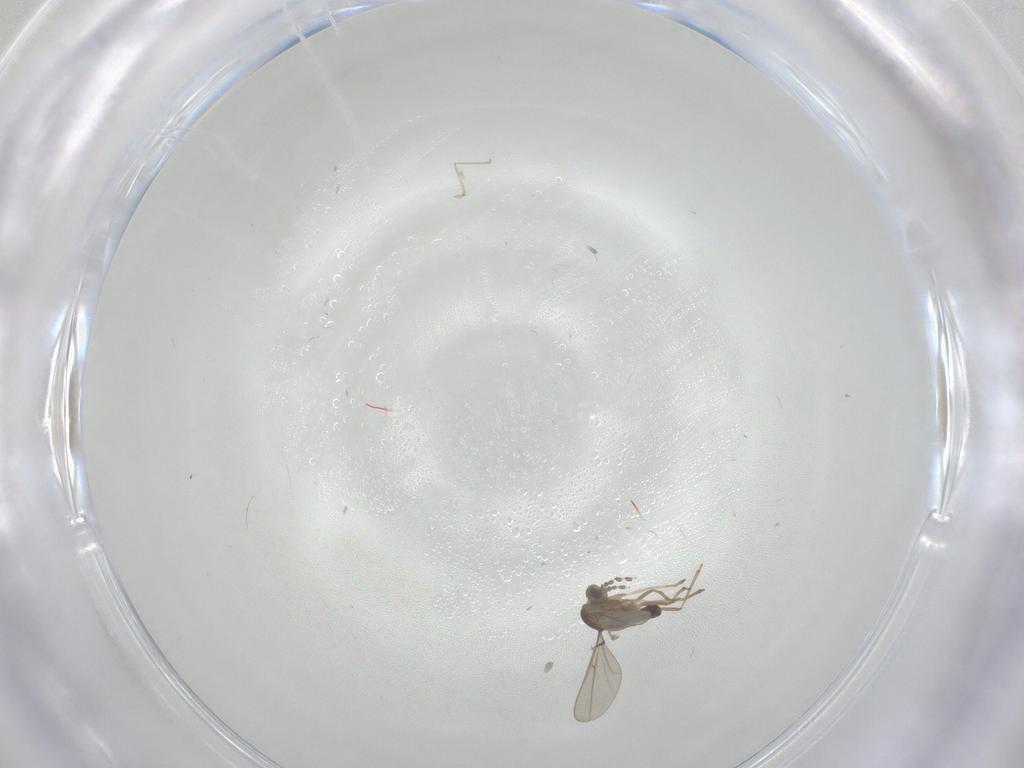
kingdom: Animalia
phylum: Arthropoda
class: Insecta
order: Diptera
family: Cecidomyiidae
